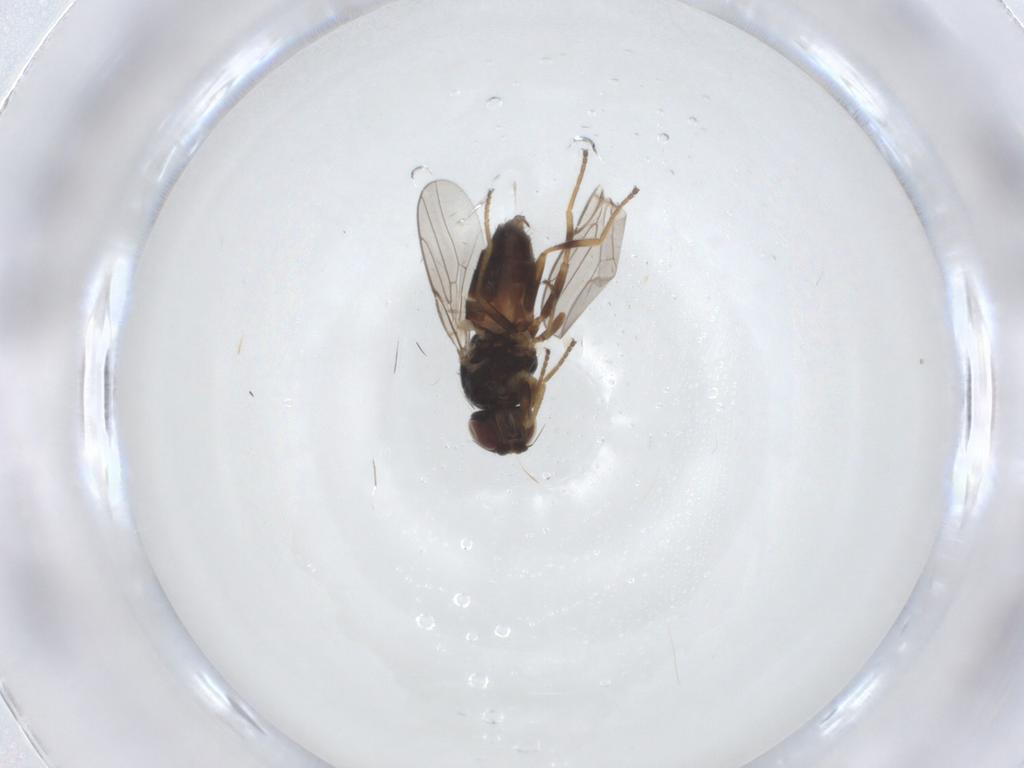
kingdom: Animalia
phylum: Arthropoda
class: Insecta
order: Diptera
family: Chloropidae
